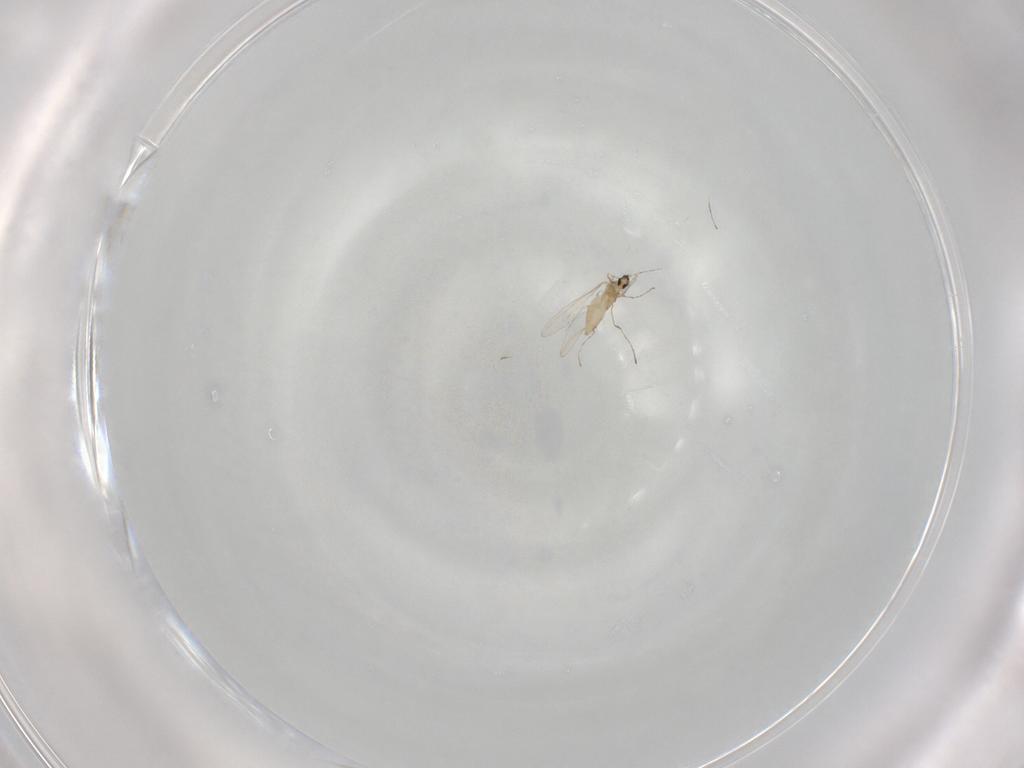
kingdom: Animalia
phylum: Arthropoda
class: Insecta
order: Diptera
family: Cecidomyiidae
